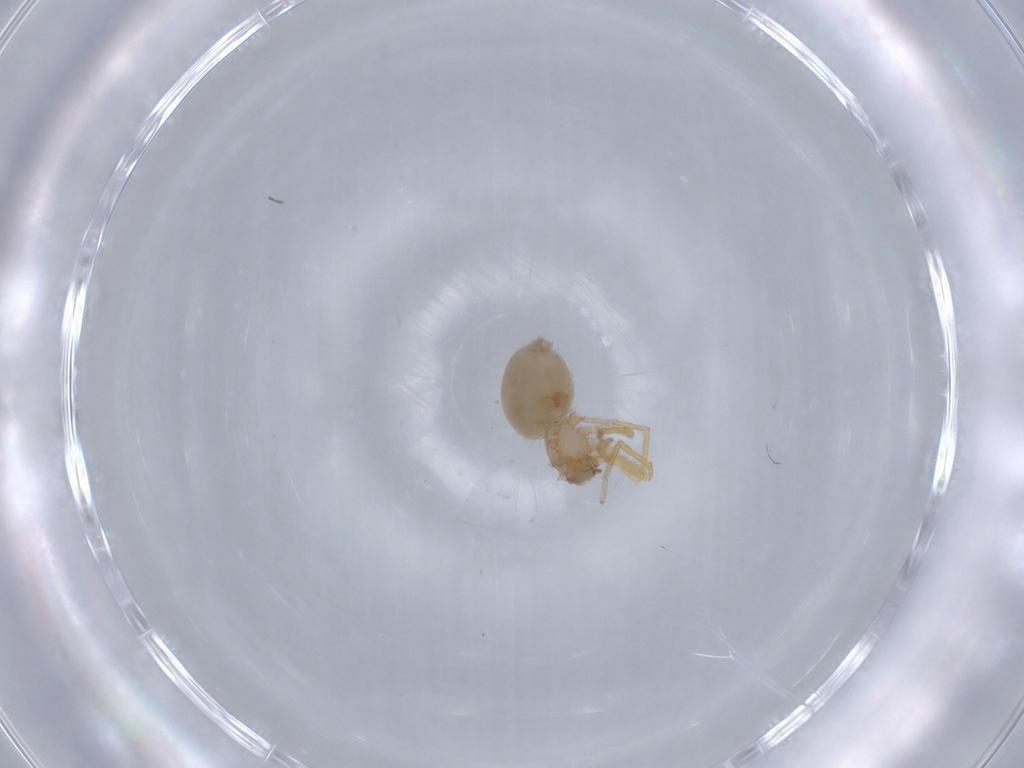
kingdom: Animalia
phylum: Arthropoda
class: Arachnida
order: Araneae
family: Oonopidae
